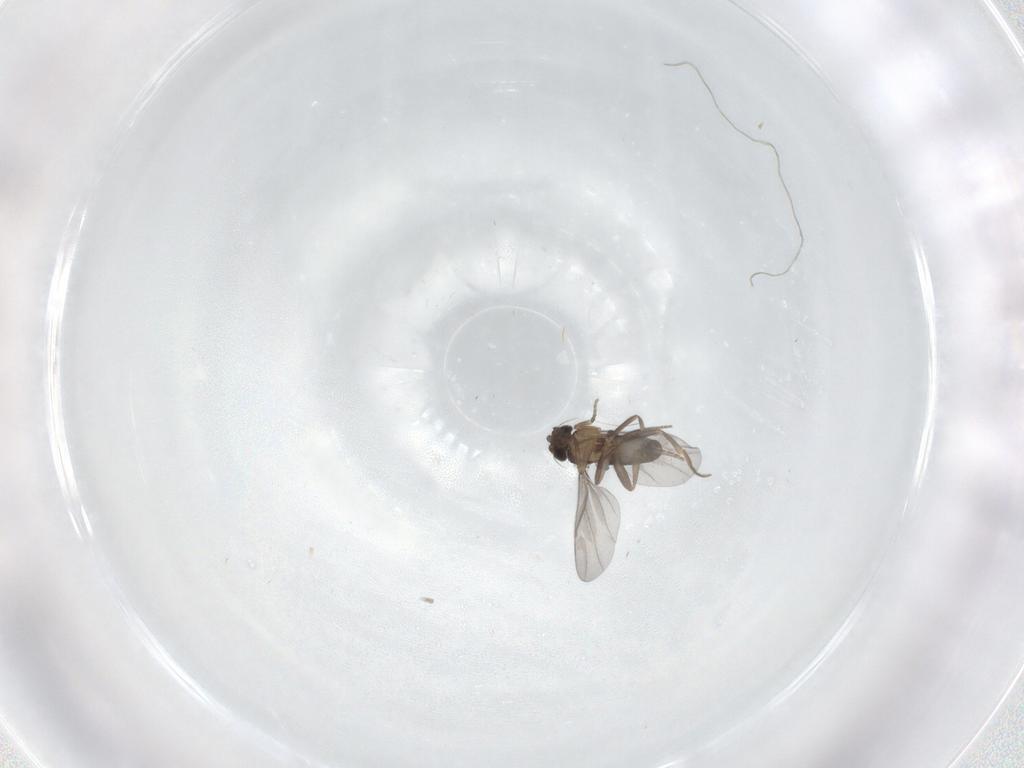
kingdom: Animalia
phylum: Arthropoda
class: Insecta
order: Diptera
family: Phoridae
